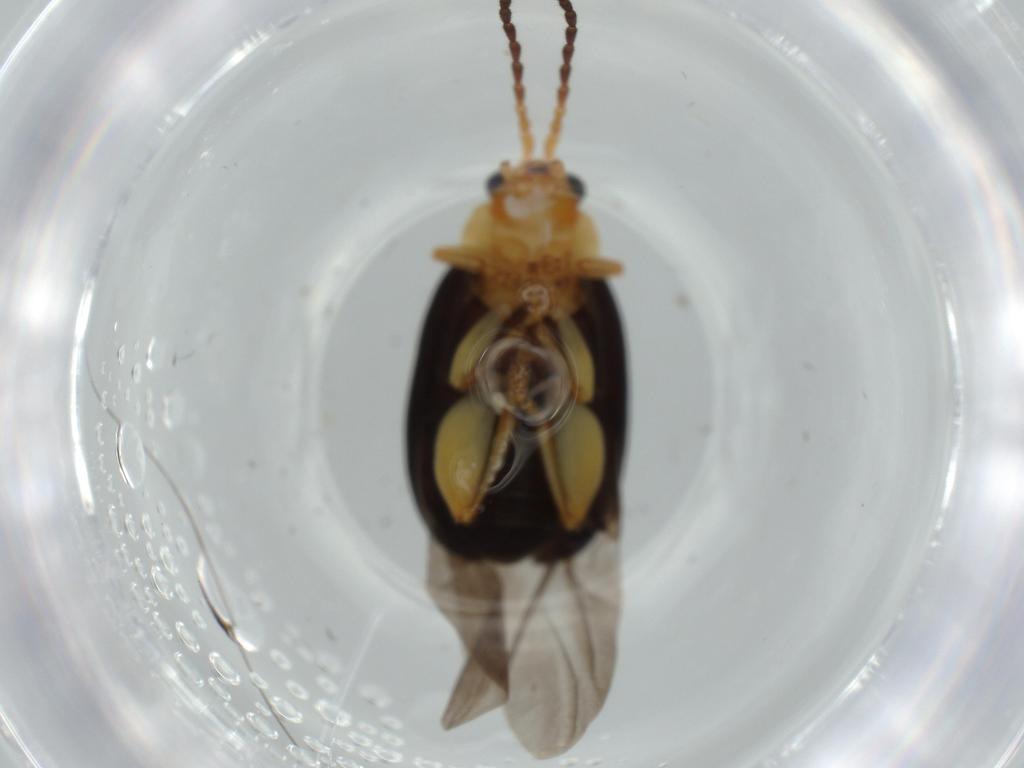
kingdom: Animalia
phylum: Arthropoda
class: Insecta
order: Coleoptera
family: Chrysomelidae
